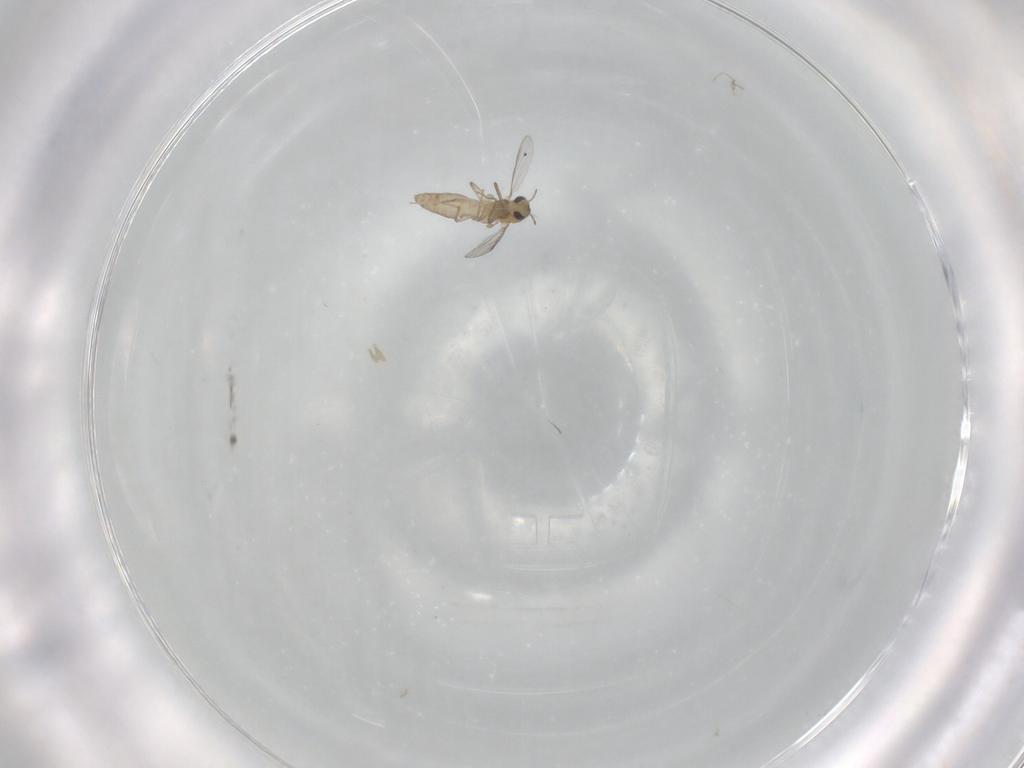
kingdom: Animalia
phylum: Arthropoda
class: Insecta
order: Diptera
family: Chironomidae
